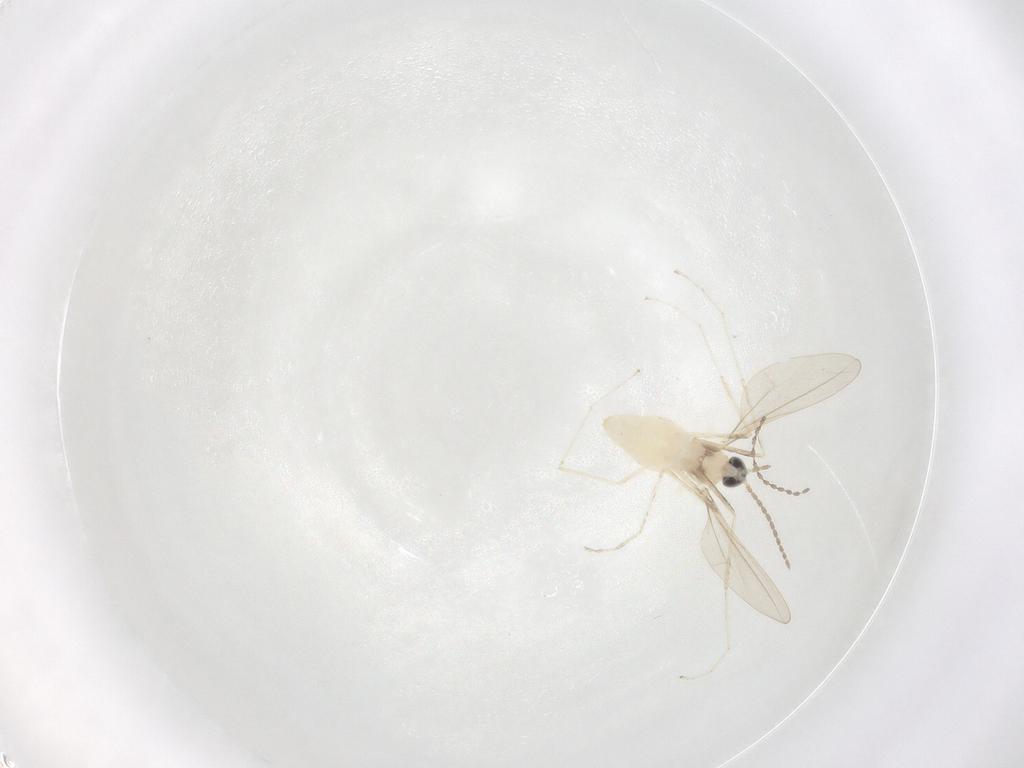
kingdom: Animalia
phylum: Arthropoda
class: Insecta
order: Diptera
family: Cecidomyiidae
